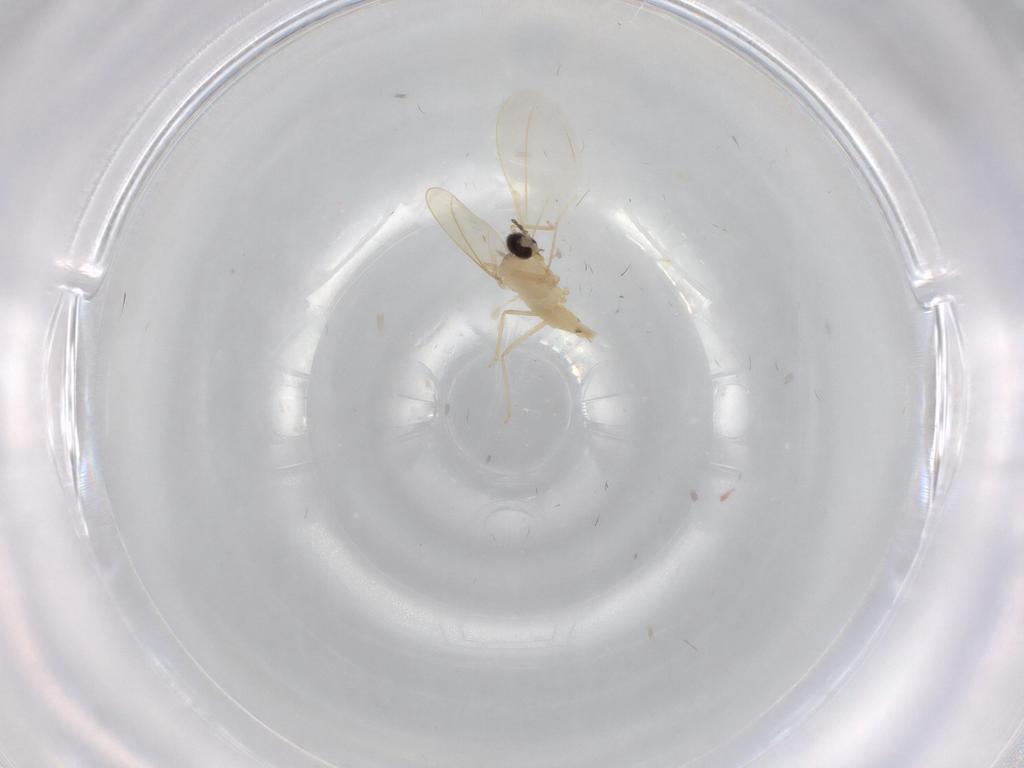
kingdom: Animalia
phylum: Arthropoda
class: Insecta
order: Diptera
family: Cecidomyiidae
